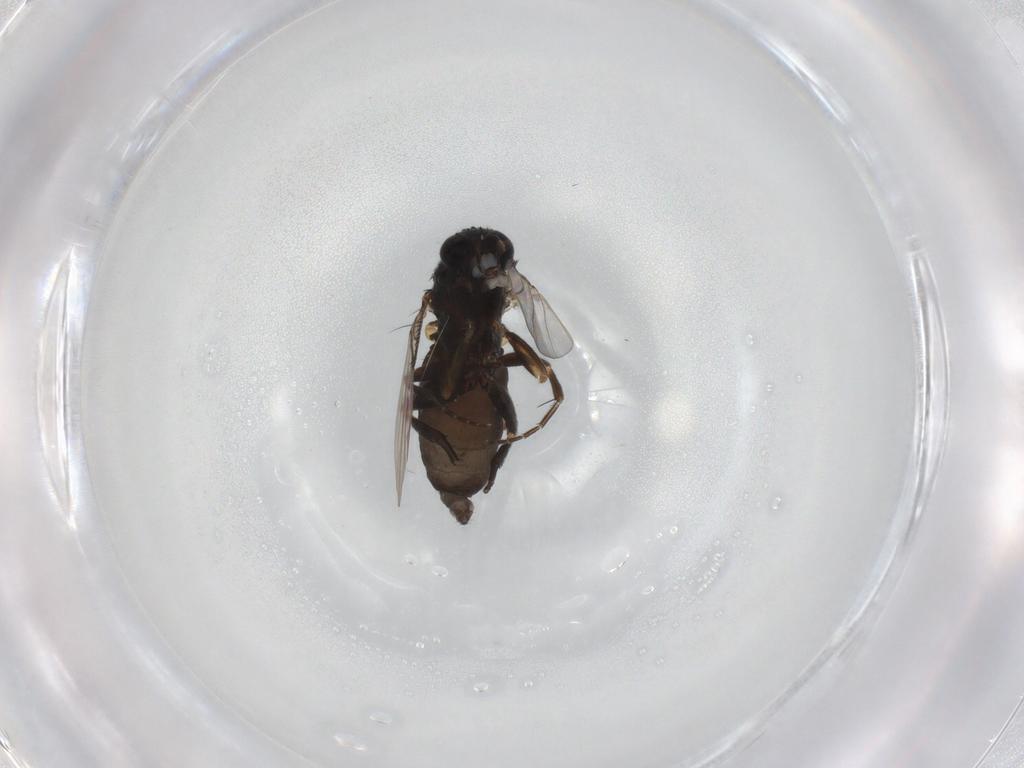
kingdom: Animalia
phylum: Arthropoda
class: Insecta
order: Diptera
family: Phoridae
